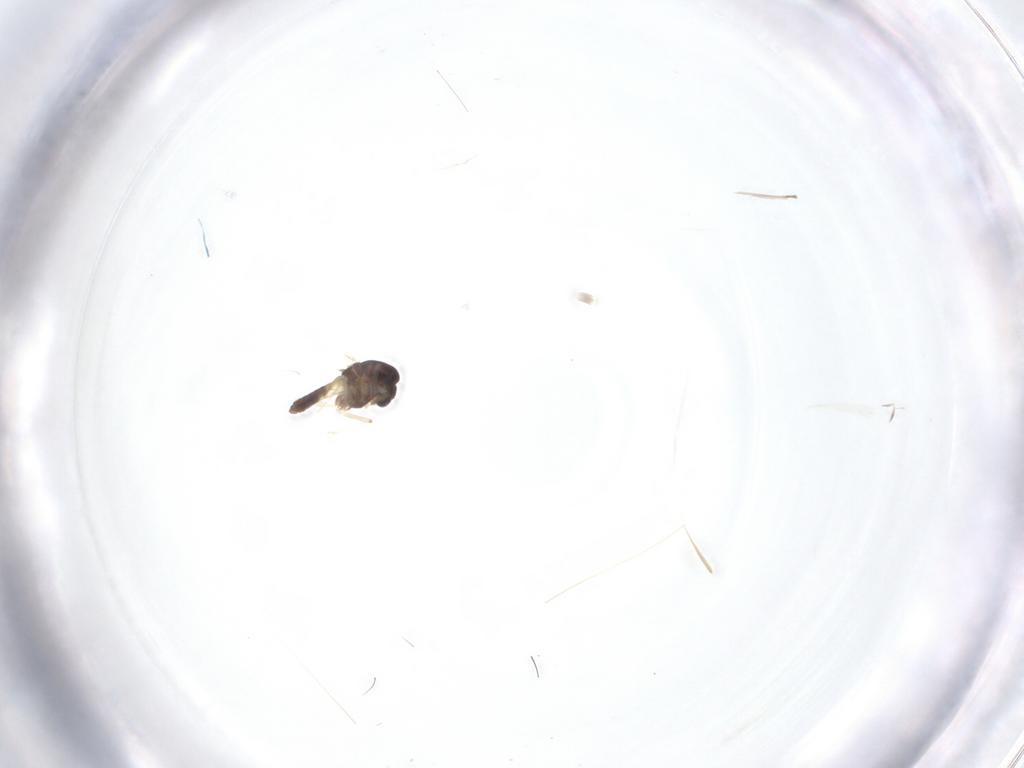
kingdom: Animalia
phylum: Arthropoda
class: Insecta
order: Diptera
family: Chironomidae
